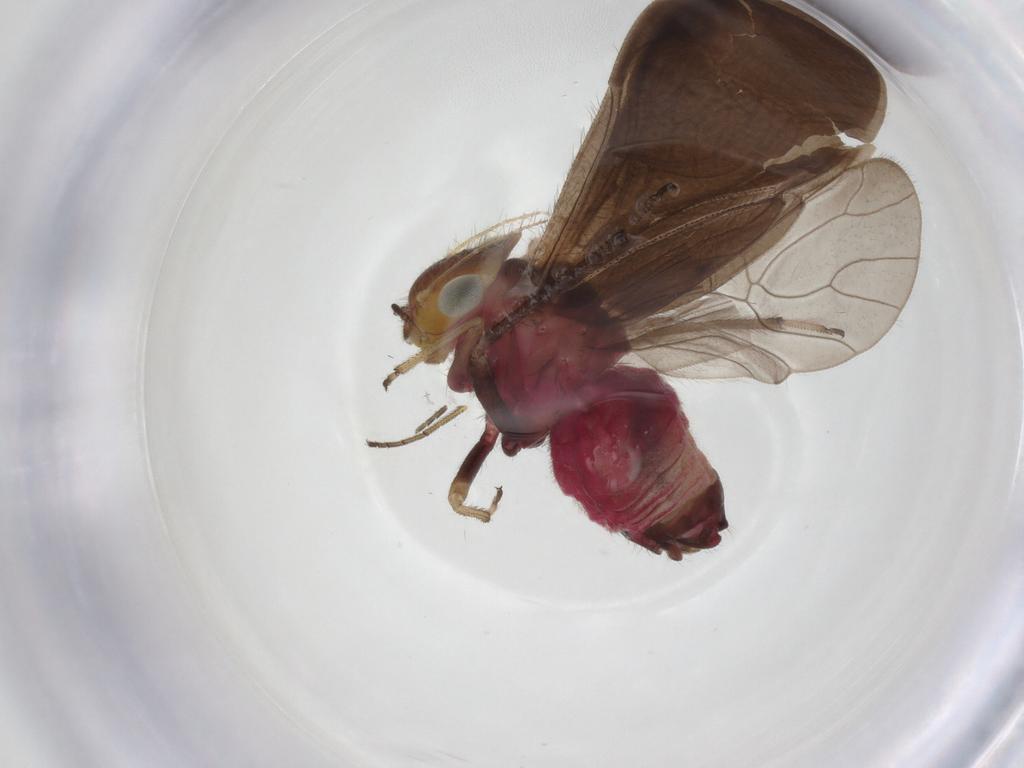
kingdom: Animalia
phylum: Arthropoda
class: Insecta
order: Psocodea
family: Pseudocaeciliidae
